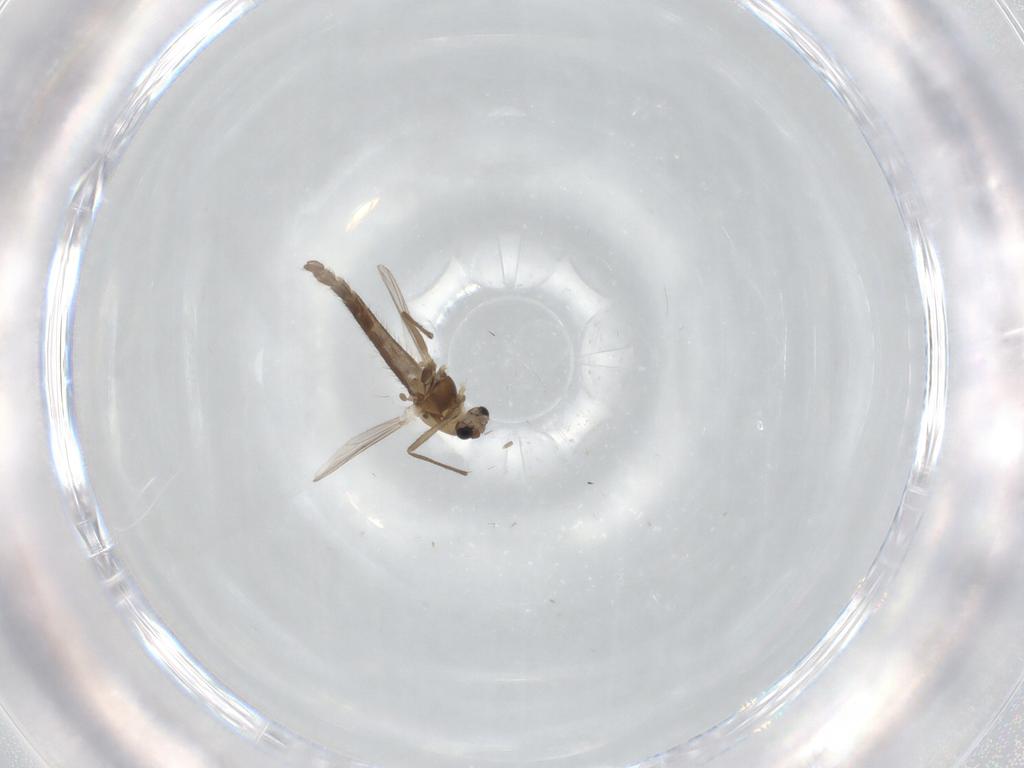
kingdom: Animalia
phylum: Arthropoda
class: Insecta
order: Diptera
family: Chironomidae
